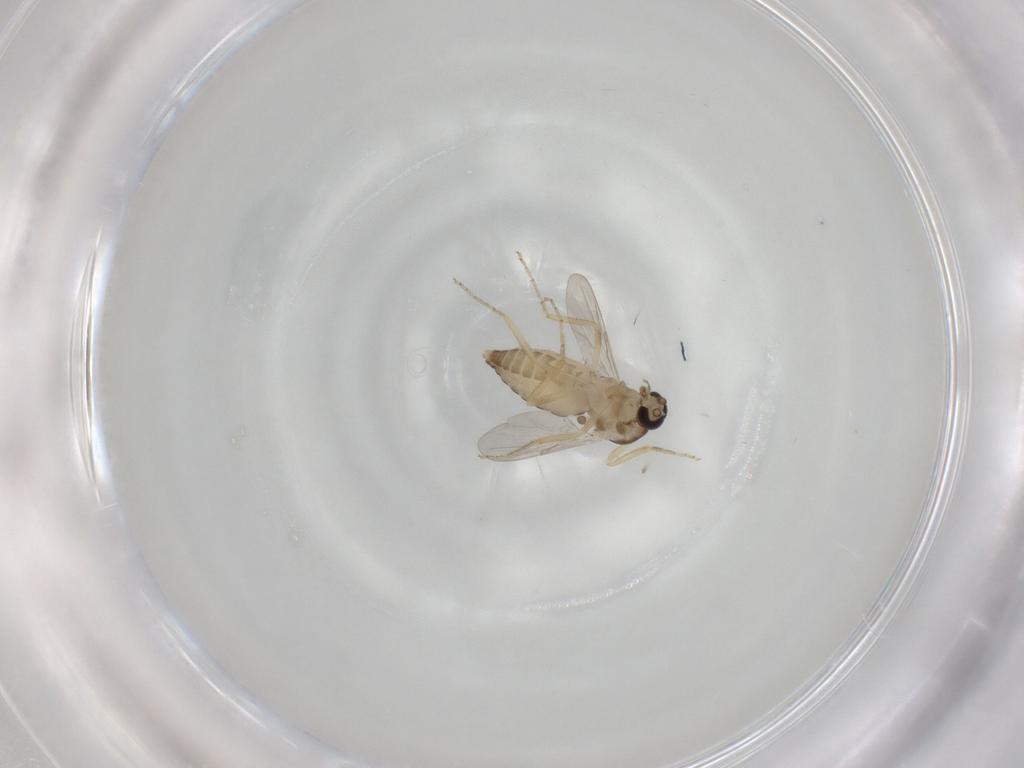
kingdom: Animalia
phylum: Arthropoda
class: Insecta
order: Diptera
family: Ceratopogonidae
